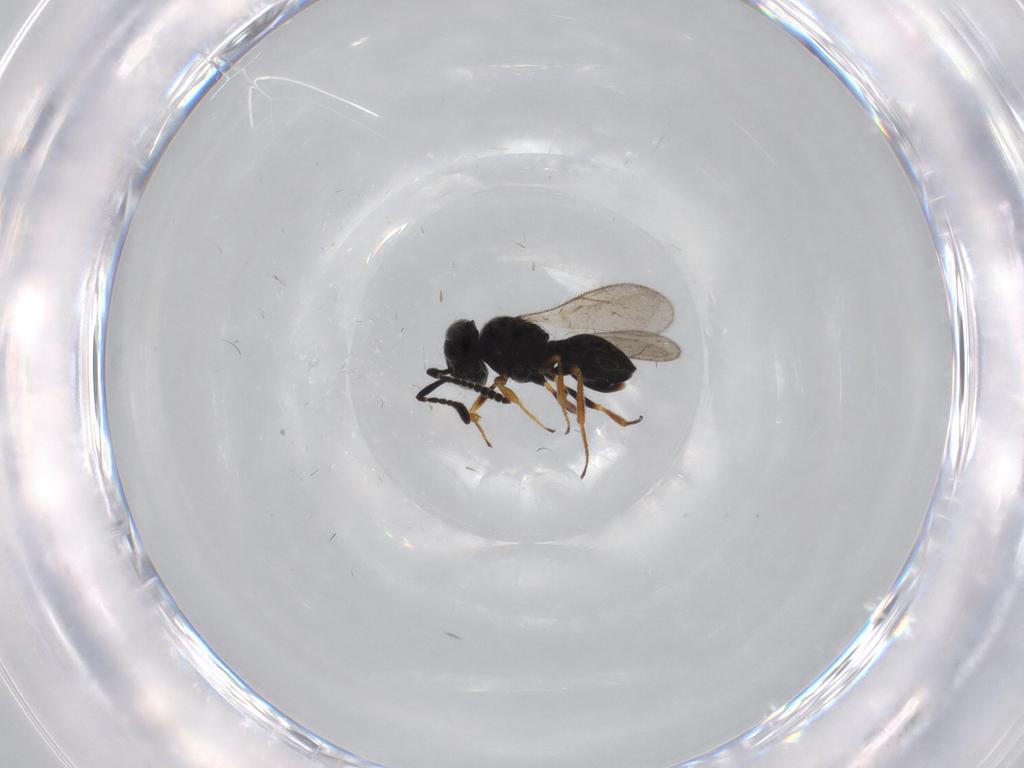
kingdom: Animalia
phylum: Arthropoda
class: Insecta
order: Hymenoptera
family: Scelionidae
